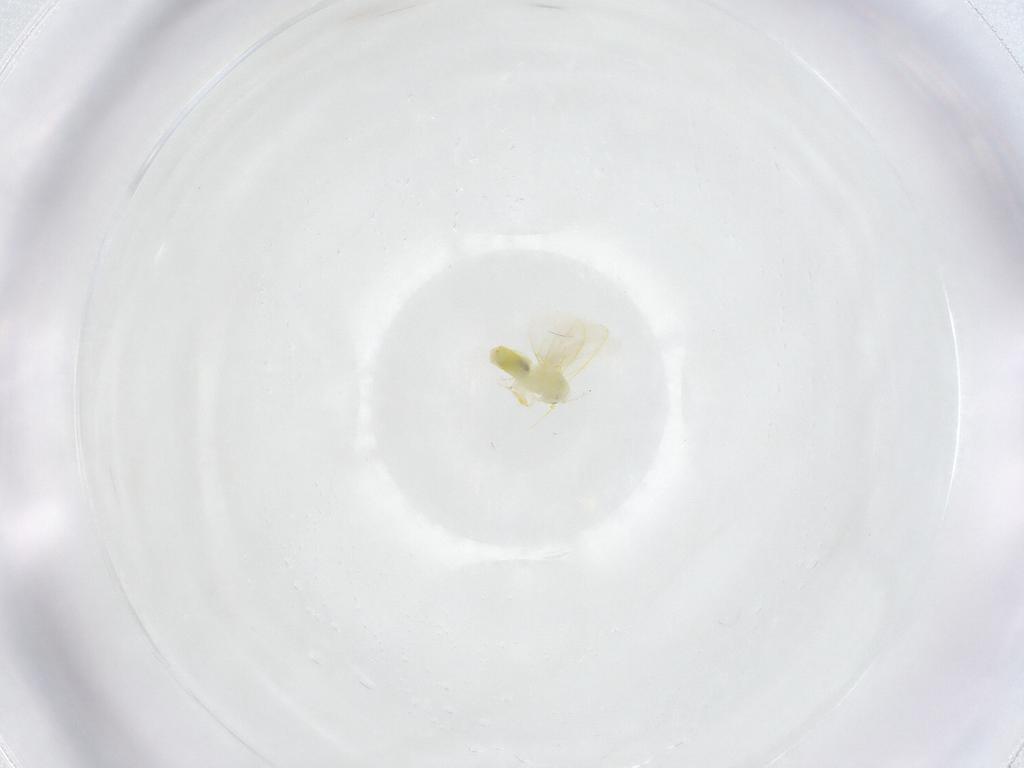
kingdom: Animalia
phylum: Arthropoda
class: Insecta
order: Hemiptera
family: Aleyrodidae
